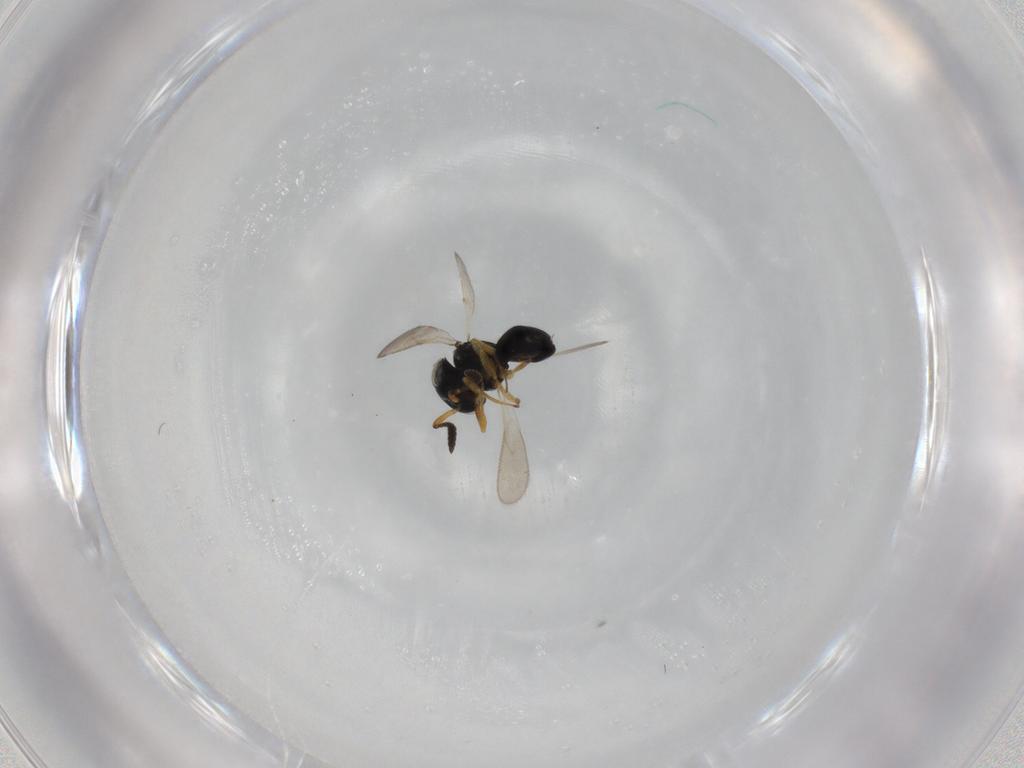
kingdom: Animalia
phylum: Arthropoda
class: Insecta
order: Hymenoptera
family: Scelionidae
